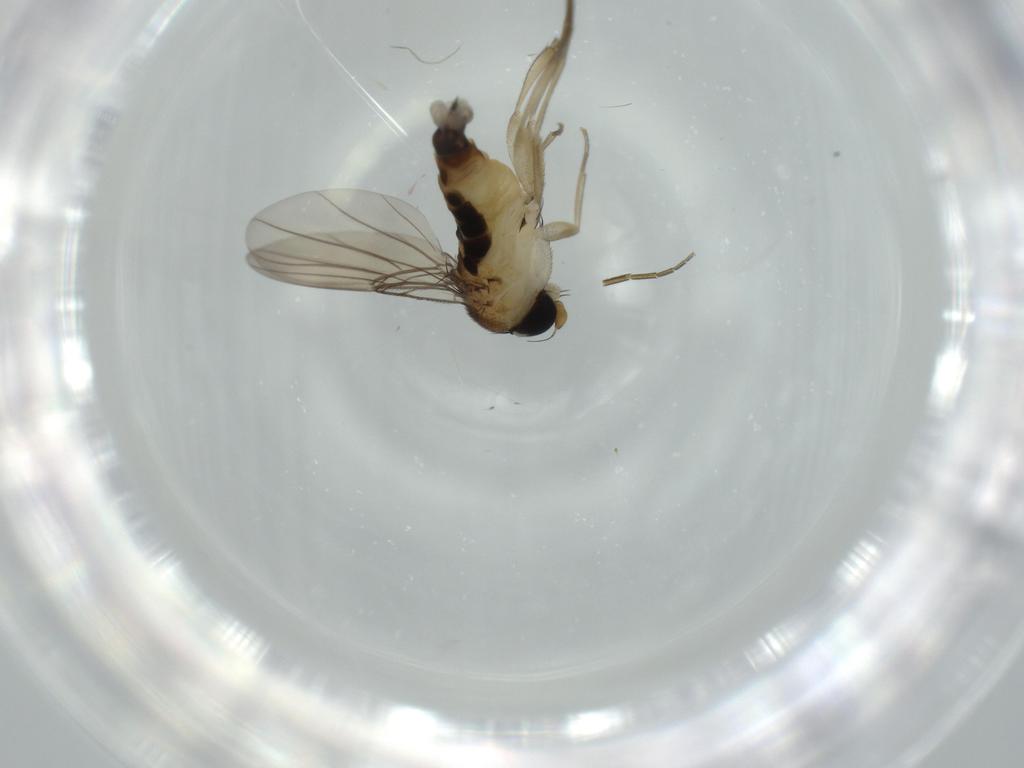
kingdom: Animalia
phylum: Arthropoda
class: Insecta
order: Diptera
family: Phoridae
